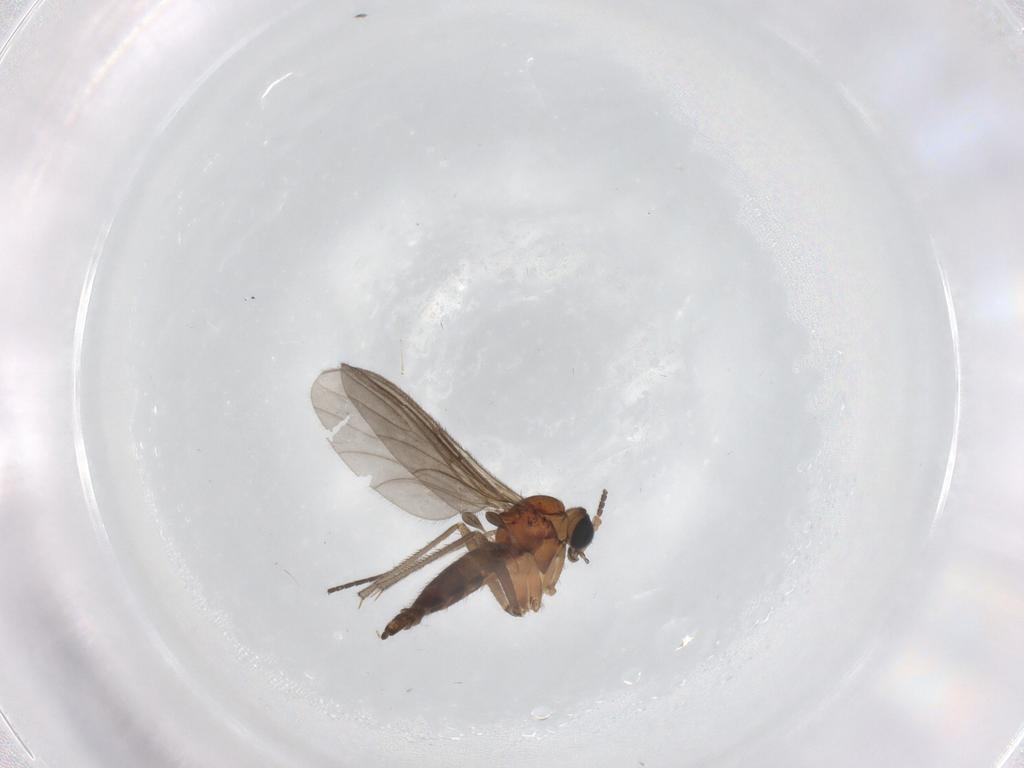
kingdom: Animalia
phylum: Arthropoda
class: Insecta
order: Diptera
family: Sciaridae
